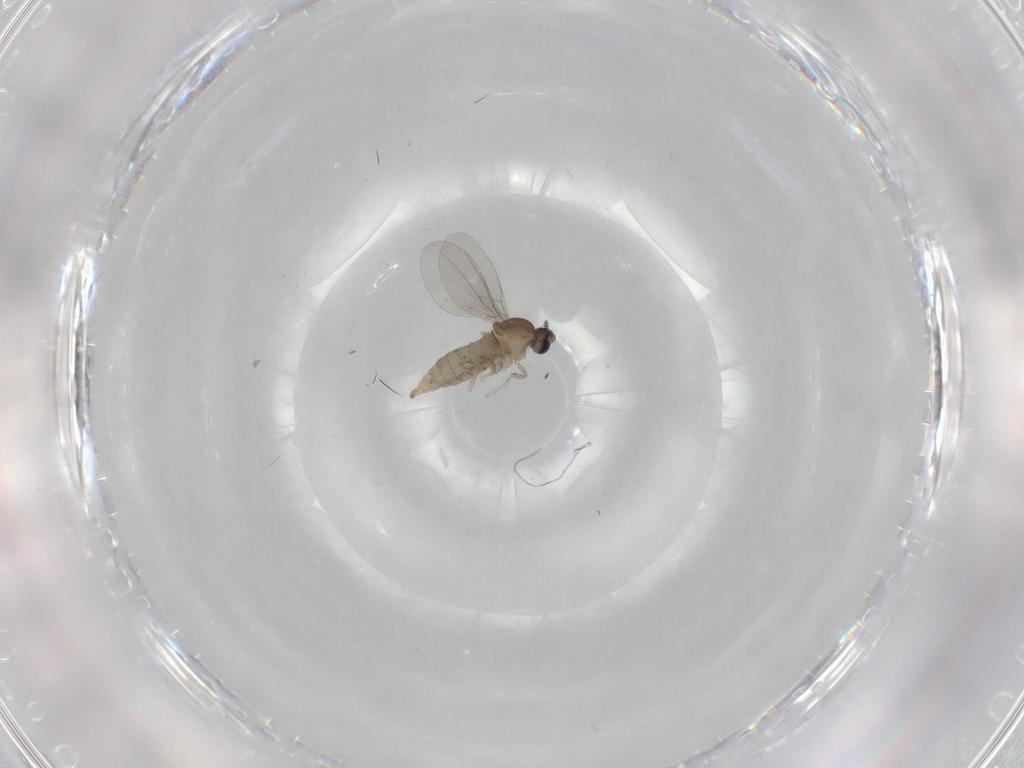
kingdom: Animalia
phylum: Arthropoda
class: Insecta
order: Diptera
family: Cecidomyiidae
